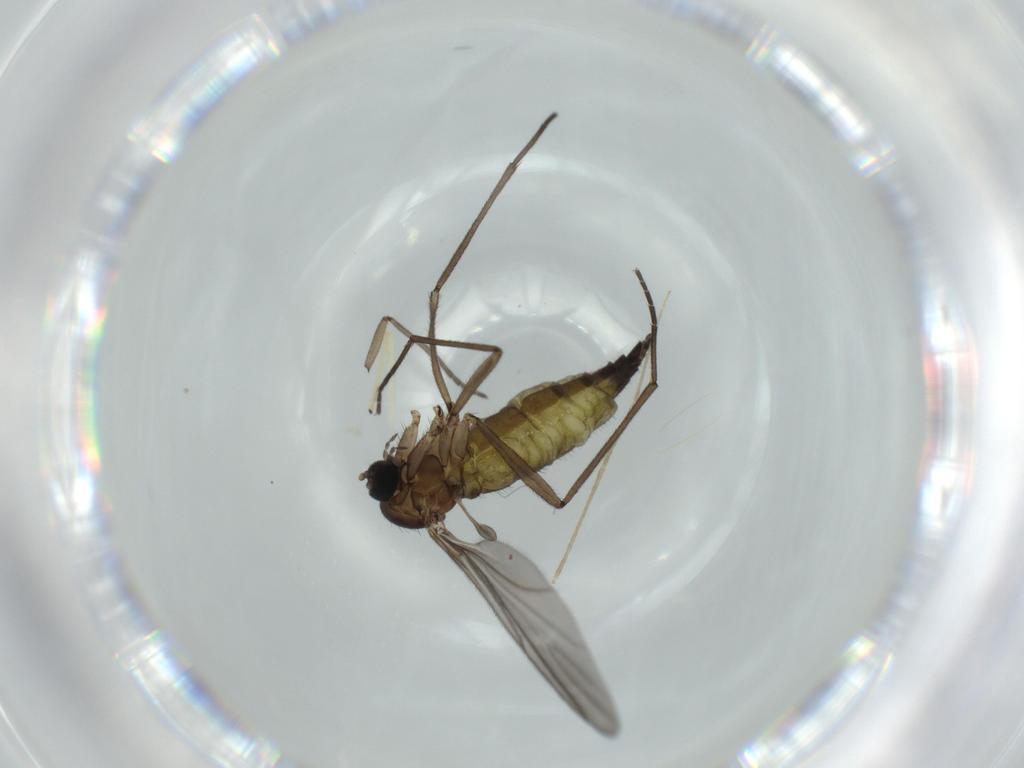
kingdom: Animalia
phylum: Arthropoda
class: Insecta
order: Diptera
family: Sciaridae
